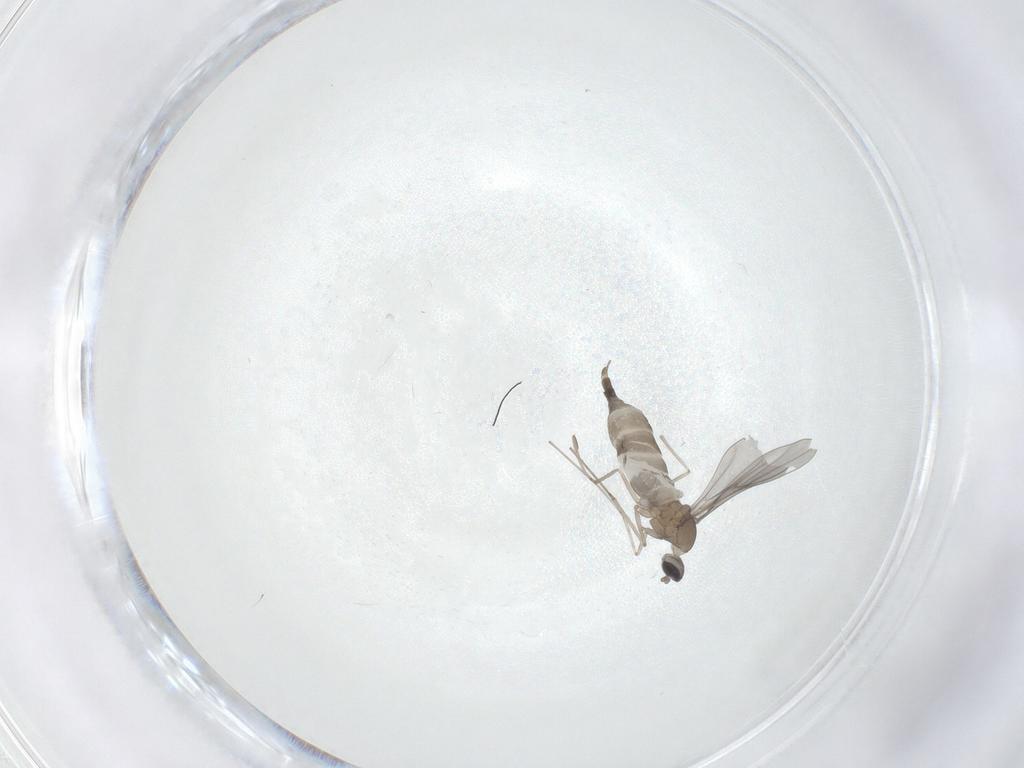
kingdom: Animalia
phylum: Arthropoda
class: Insecta
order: Diptera
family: Cecidomyiidae
